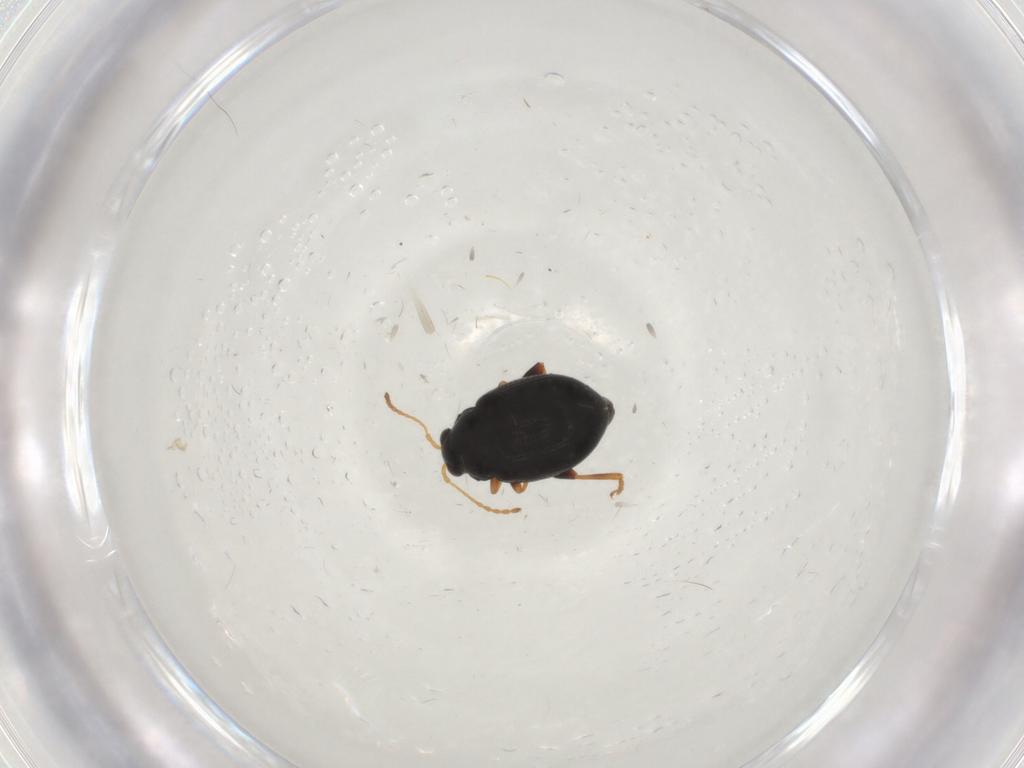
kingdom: Animalia
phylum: Arthropoda
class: Insecta
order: Coleoptera
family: Chrysomelidae
